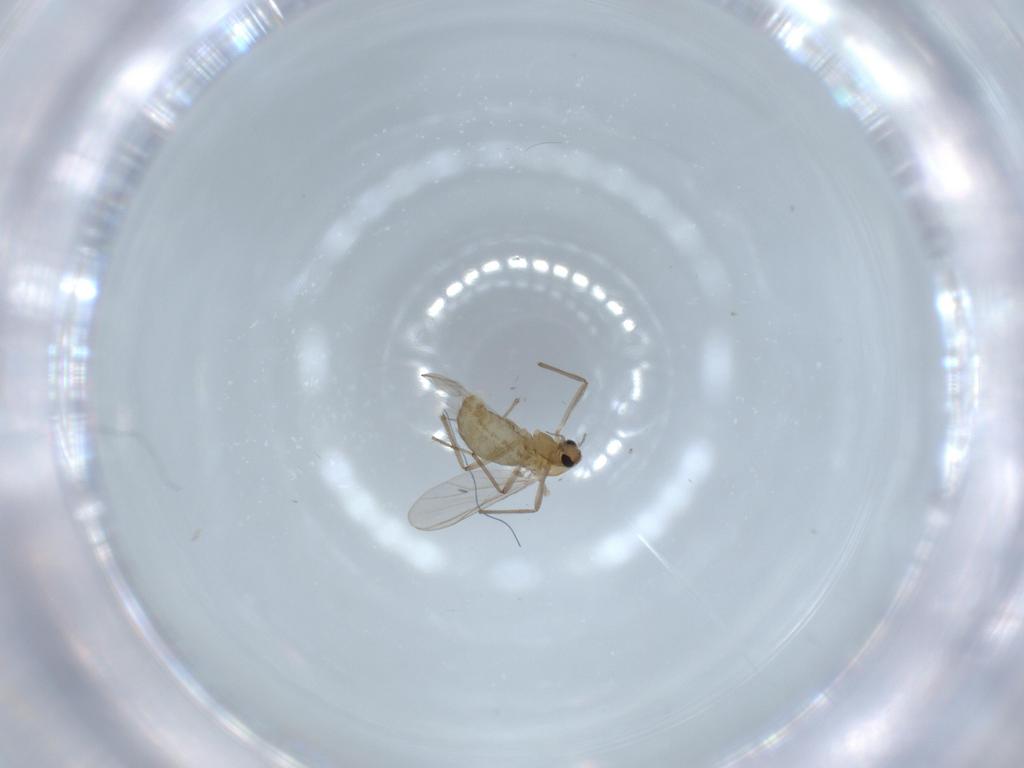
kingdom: Animalia
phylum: Arthropoda
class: Insecta
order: Diptera
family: Chironomidae
